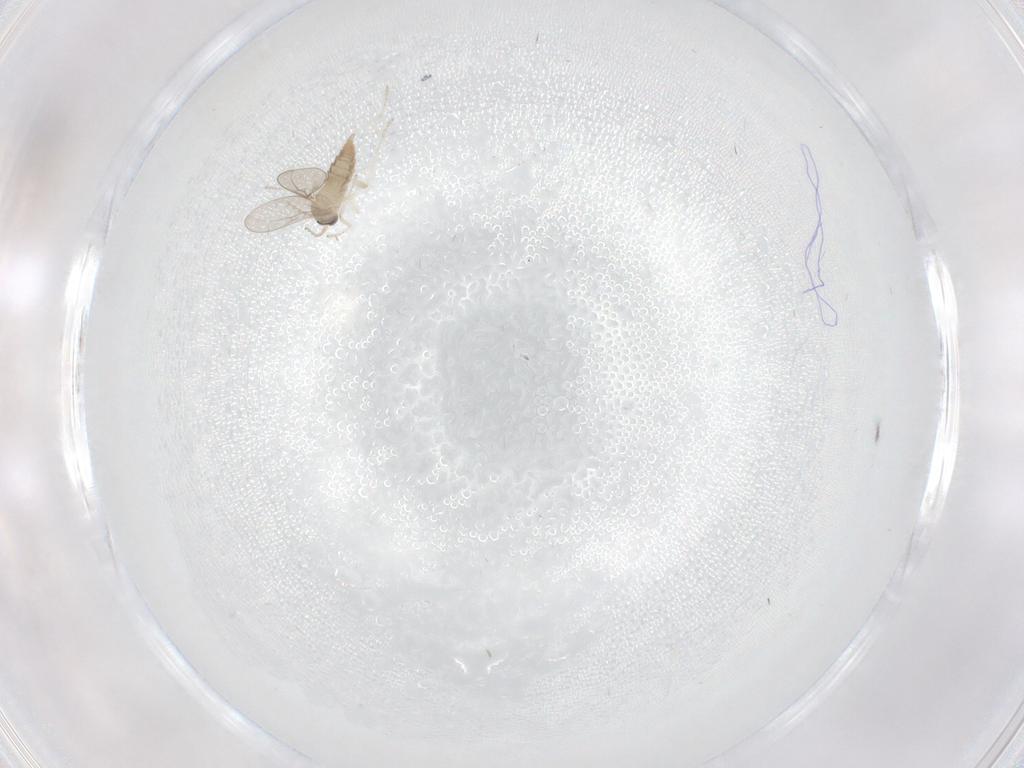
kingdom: Animalia
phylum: Arthropoda
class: Insecta
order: Diptera
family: Cecidomyiidae
